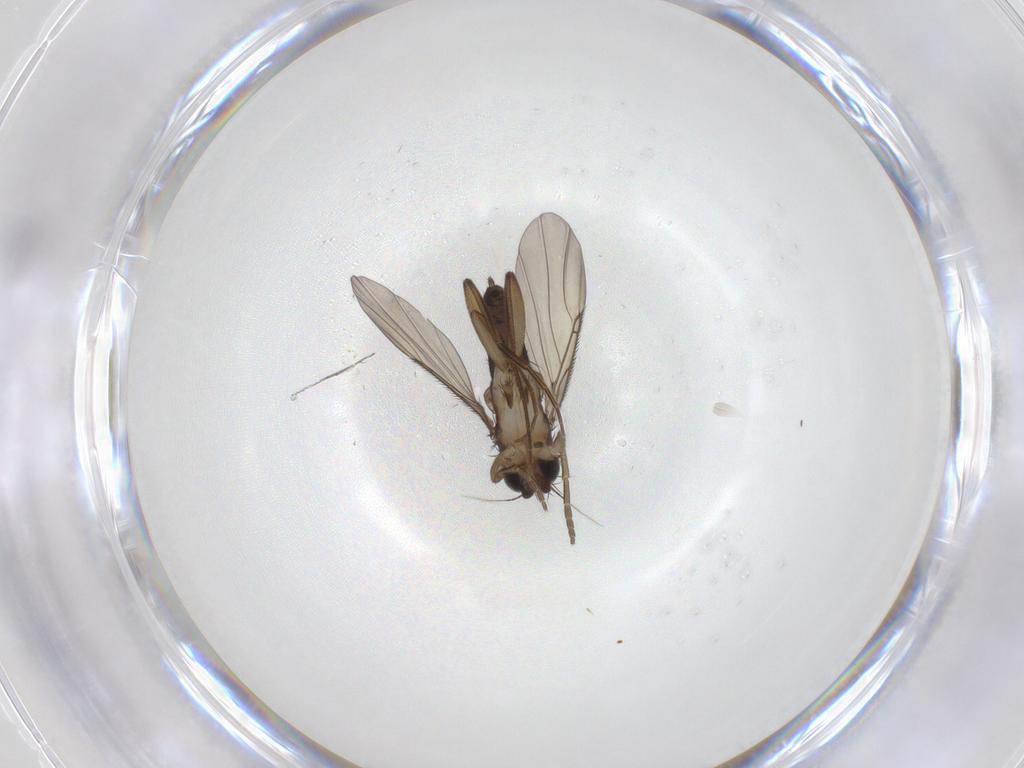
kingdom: Animalia
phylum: Arthropoda
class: Insecta
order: Diptera
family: Phoridae
